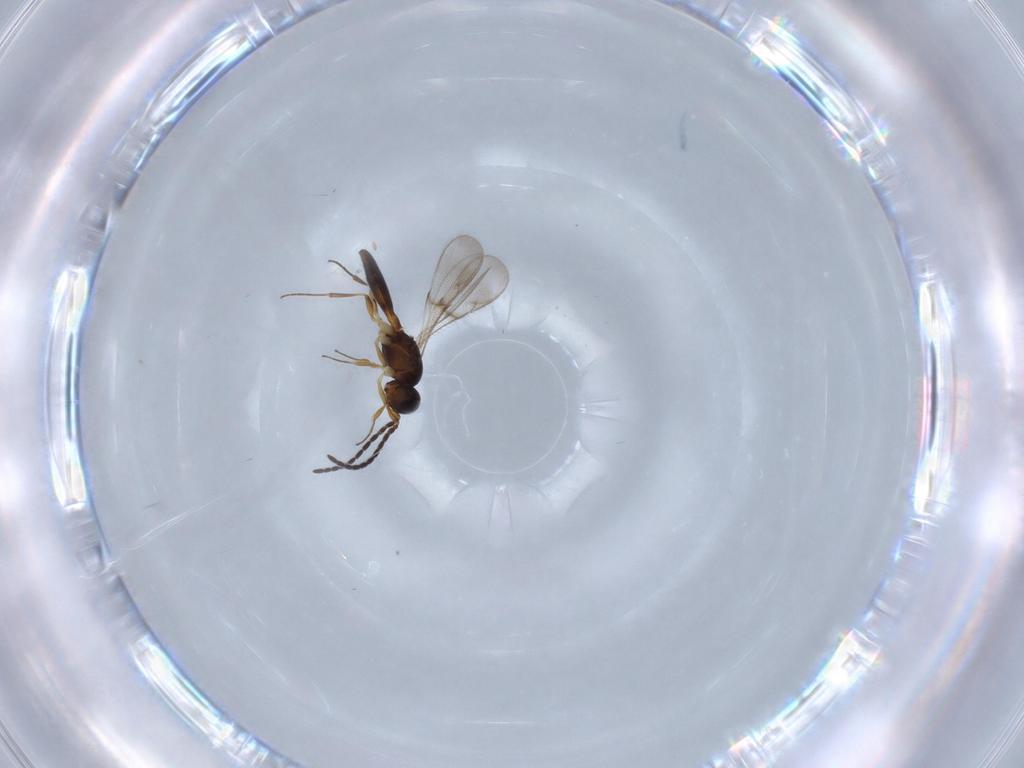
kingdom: Animalia
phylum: Arthropoda
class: Insecta
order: Hymenoptera
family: Scelionidae
